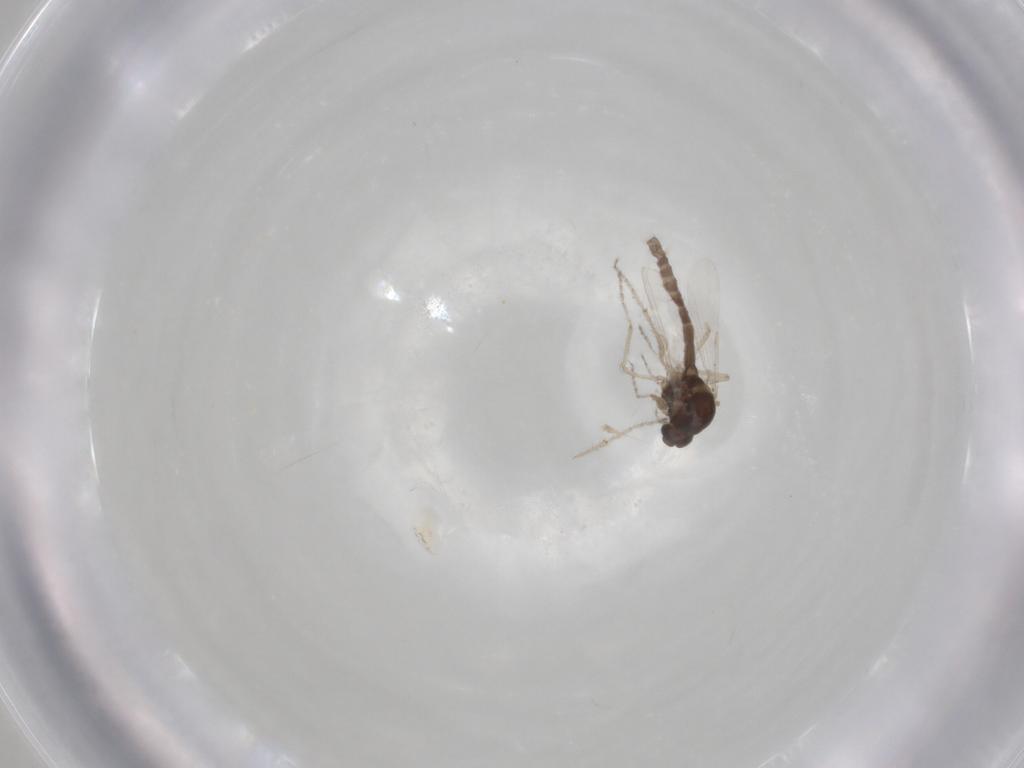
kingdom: Animalia
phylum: Arthropoda
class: Insecta
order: Diptera
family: Ceratopogonidae
